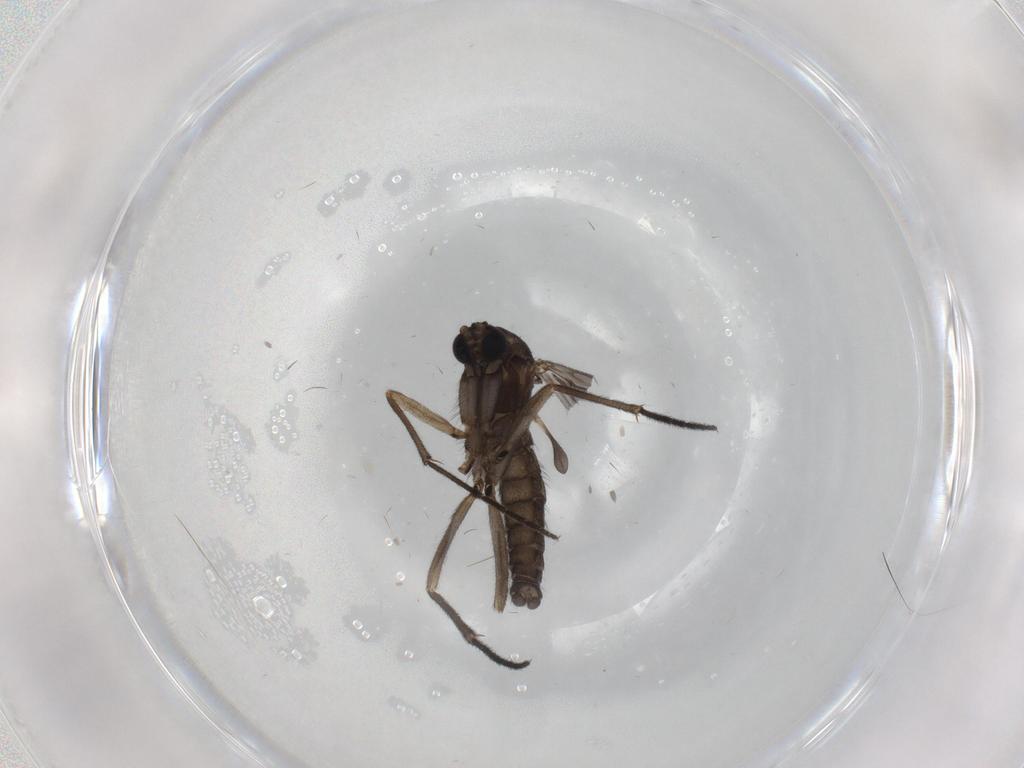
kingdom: Animalia
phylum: Arthropoda
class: Insecta
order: Diptera
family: Sciaridae
